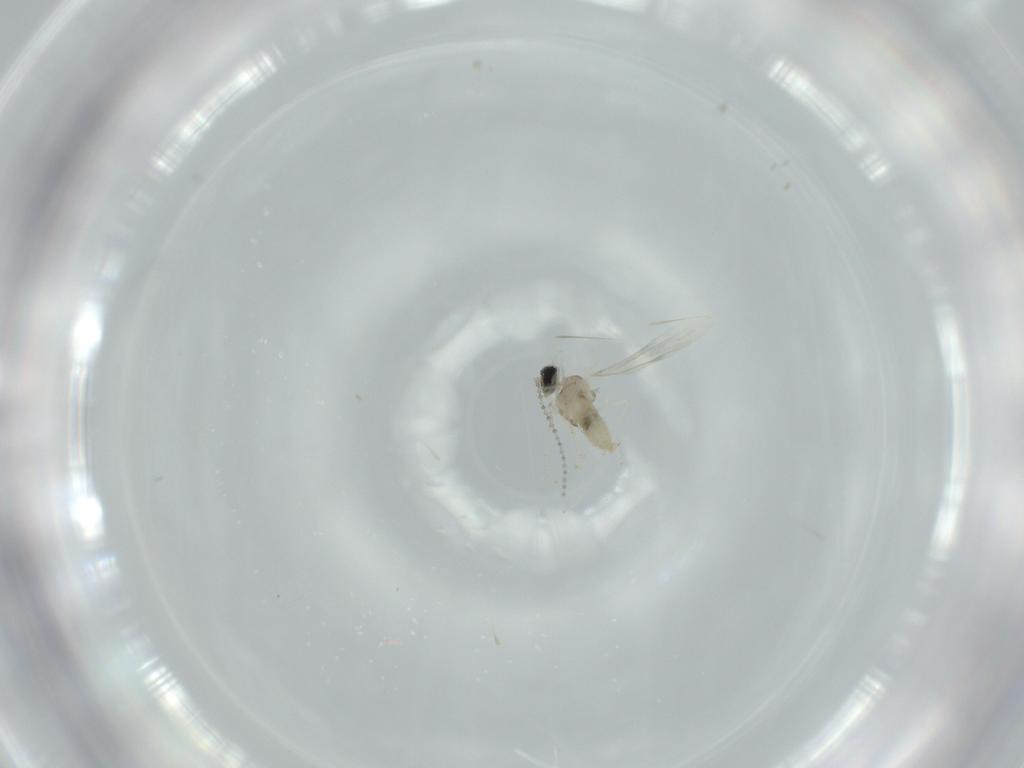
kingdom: Animalia
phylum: Arthropoda
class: Insecta
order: Diptera
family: Cecidomyiidae
